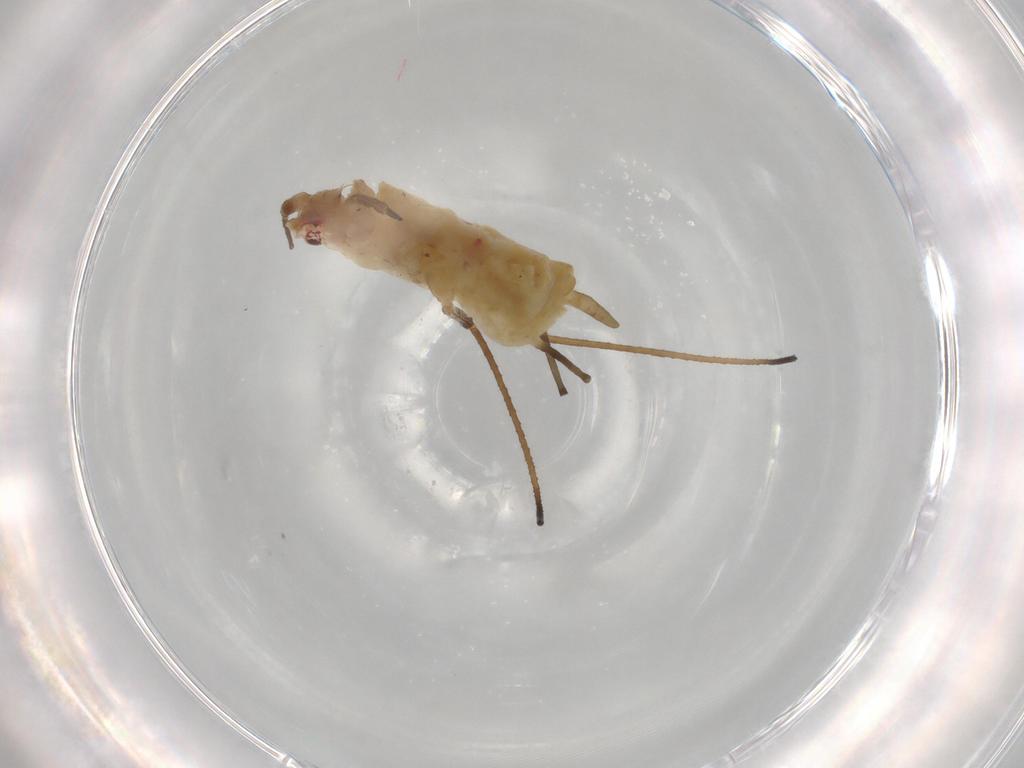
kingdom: Animalia
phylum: Arthropoda
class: Insecta
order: Hemiptera
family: Aphididae
